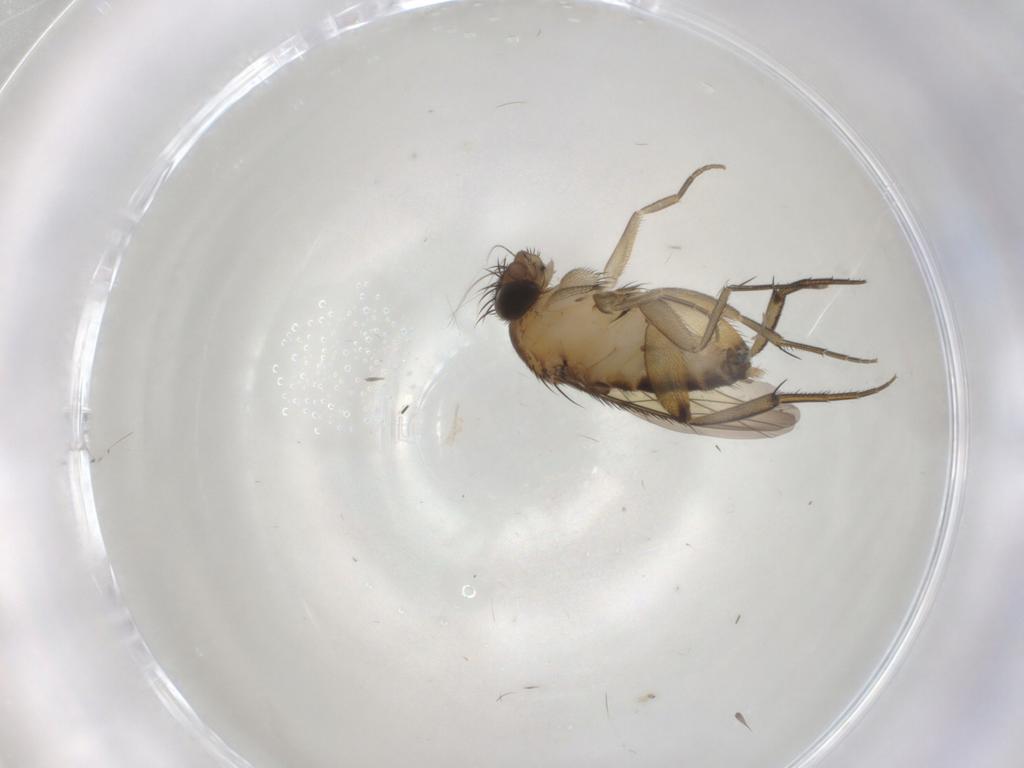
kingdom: Animalia
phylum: Arthropoda
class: Insecta
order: Diptera
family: Phoridae
